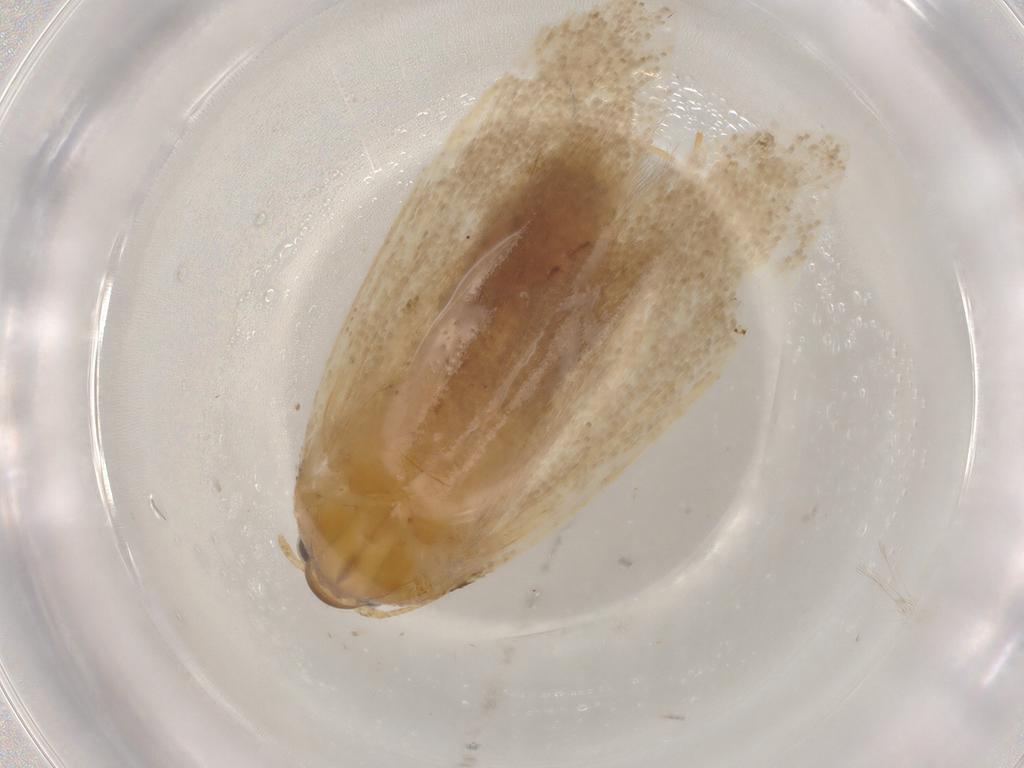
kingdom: Animalia
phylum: Arthropoda
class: Insecta
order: Lepidoptera
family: Autostichidae
